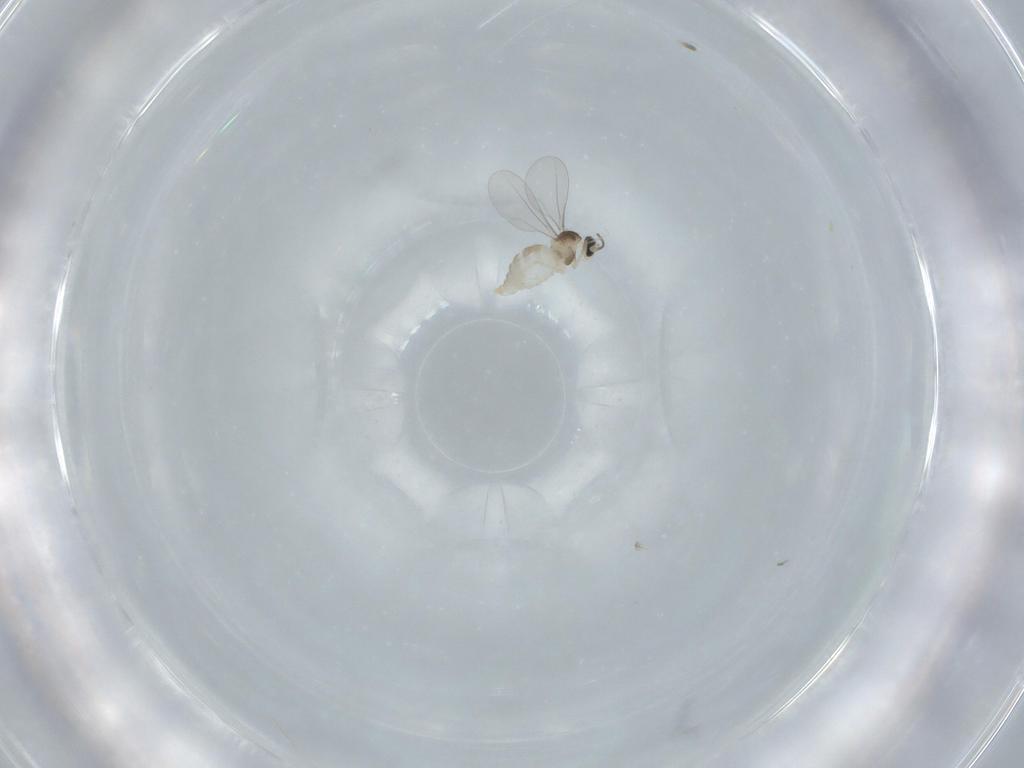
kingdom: Animalia
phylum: Arthropoda
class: Insecta
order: Diptera
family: Cecidomyiidae
